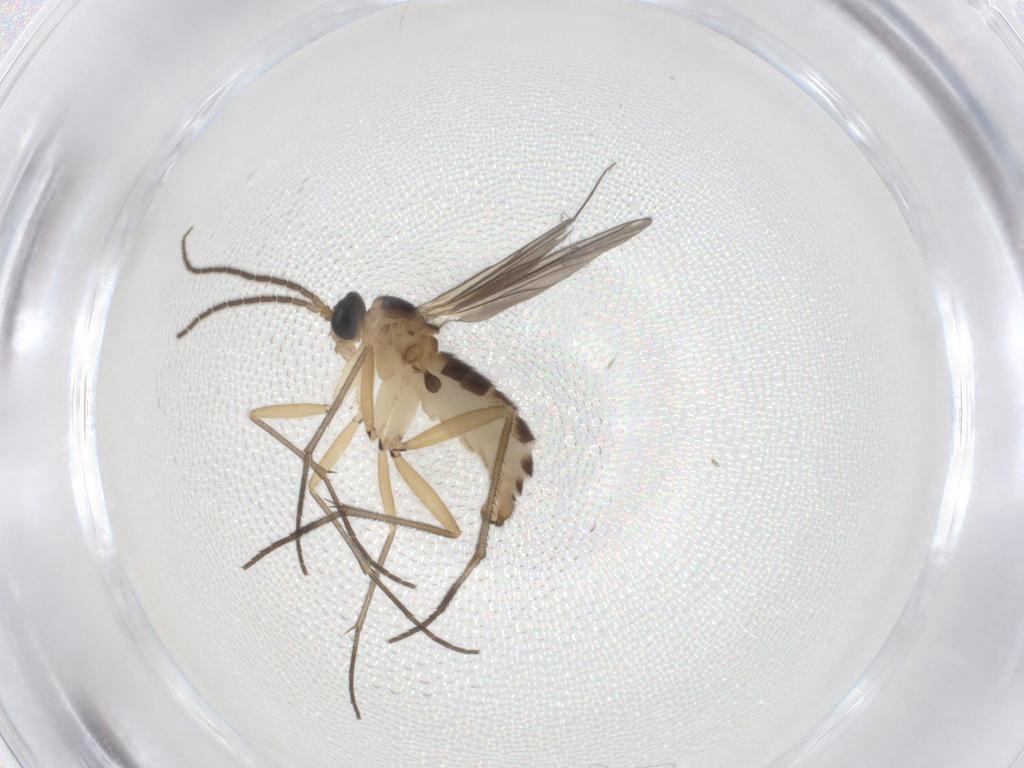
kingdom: Animalia
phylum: Arthropoda
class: Insecta
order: Diptera
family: Sciaridae
